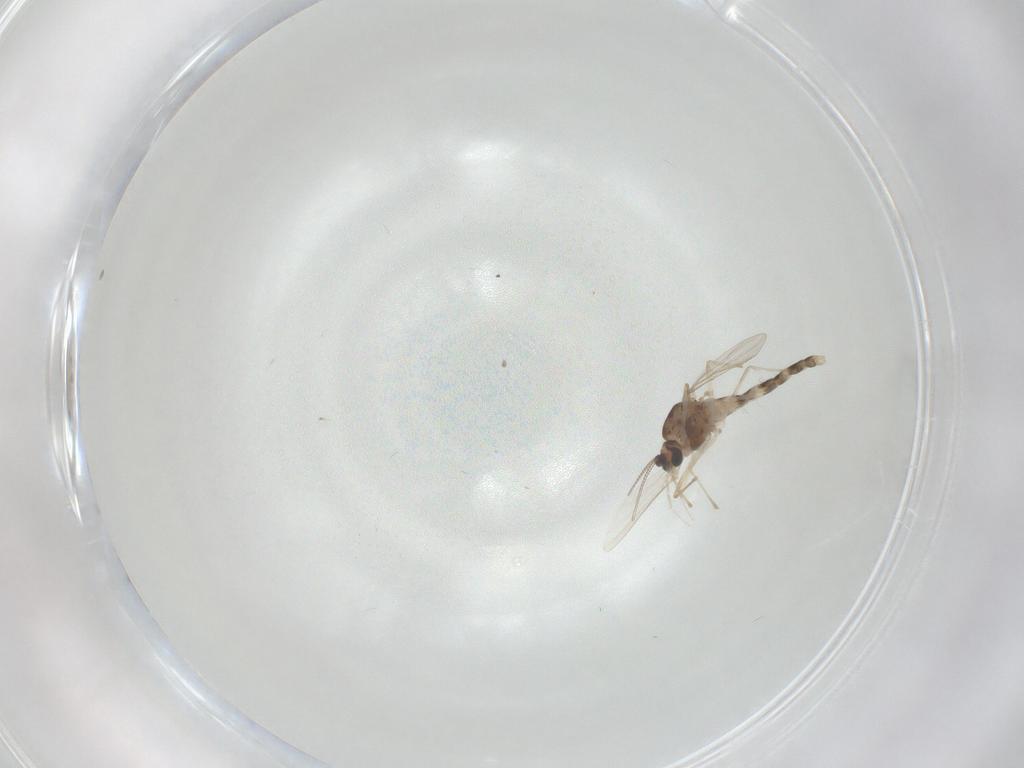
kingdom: Animalia
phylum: Arthropoda
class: Insecta
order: Diptera
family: Chironomidae
